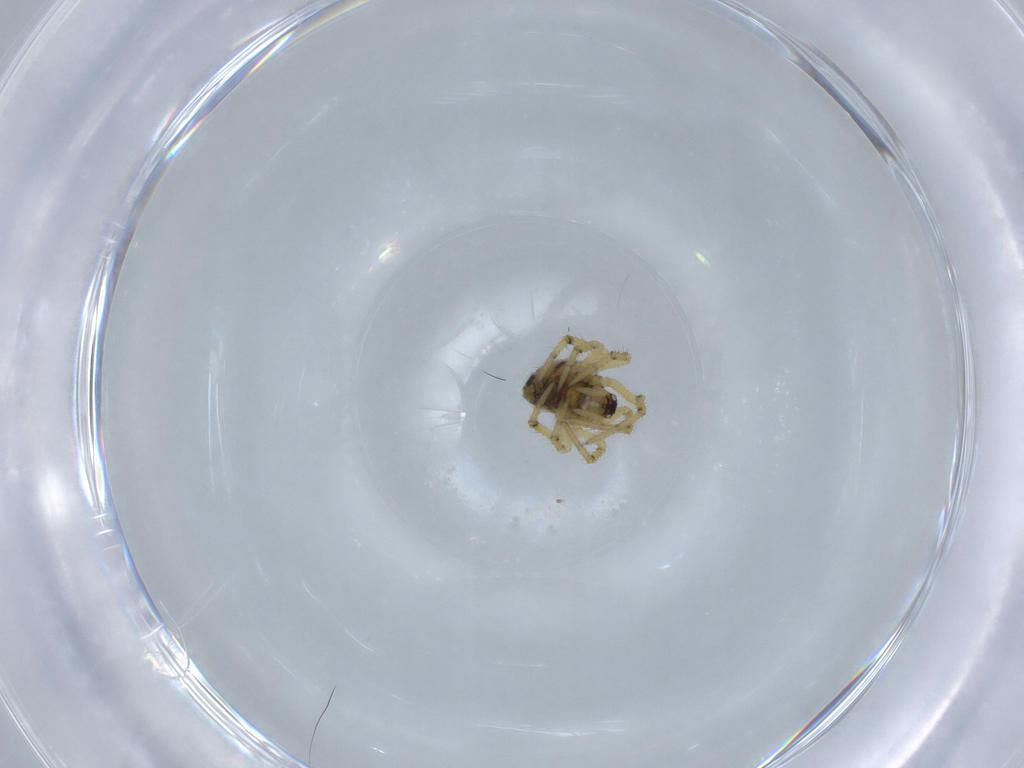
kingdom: Animalia
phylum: Arthropoda
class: Arachnida
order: Araneae
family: Theridiidae
